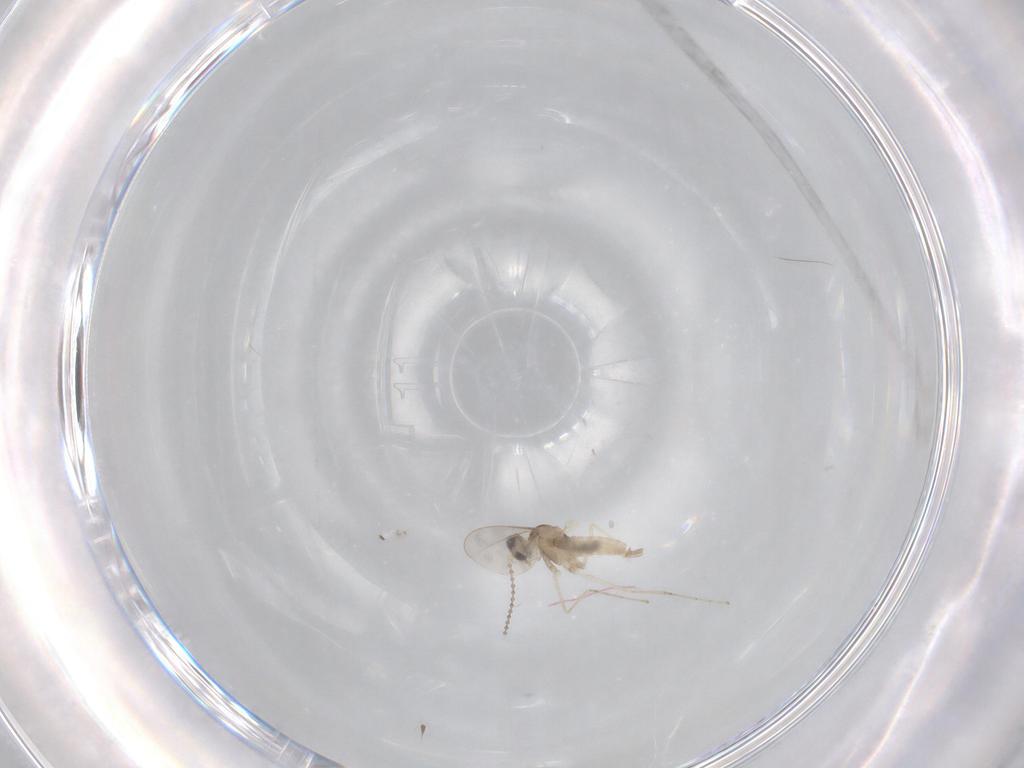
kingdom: Animalia
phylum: Arthropoda
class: Insecta
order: Diptera
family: Cecidomyiidae
